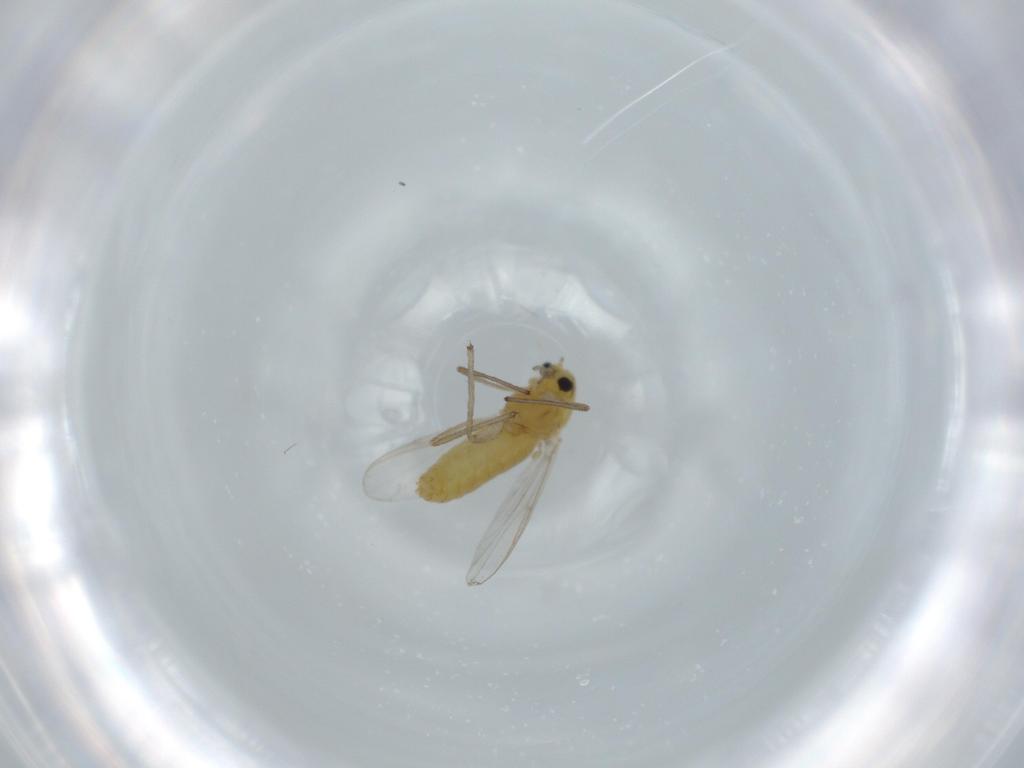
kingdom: Animalia
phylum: Arthropoda
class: Insecta
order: Diptera
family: Chironomidae
